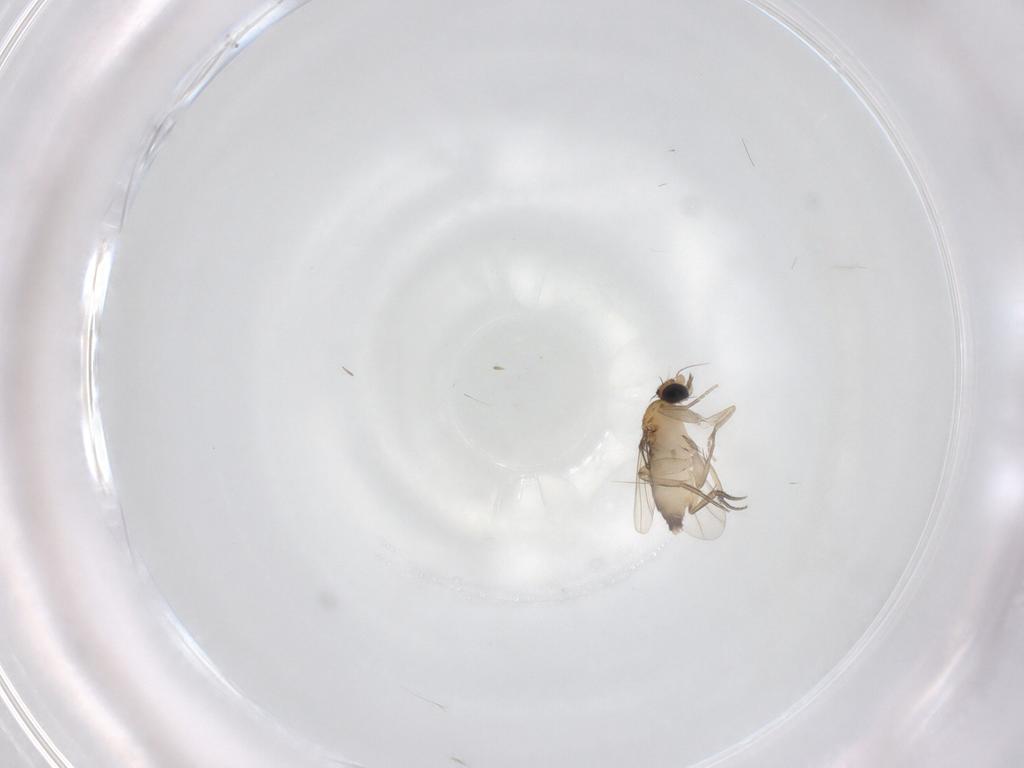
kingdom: Animalia
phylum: Arthropoda
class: Insecta
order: Diptera
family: Phoridae
